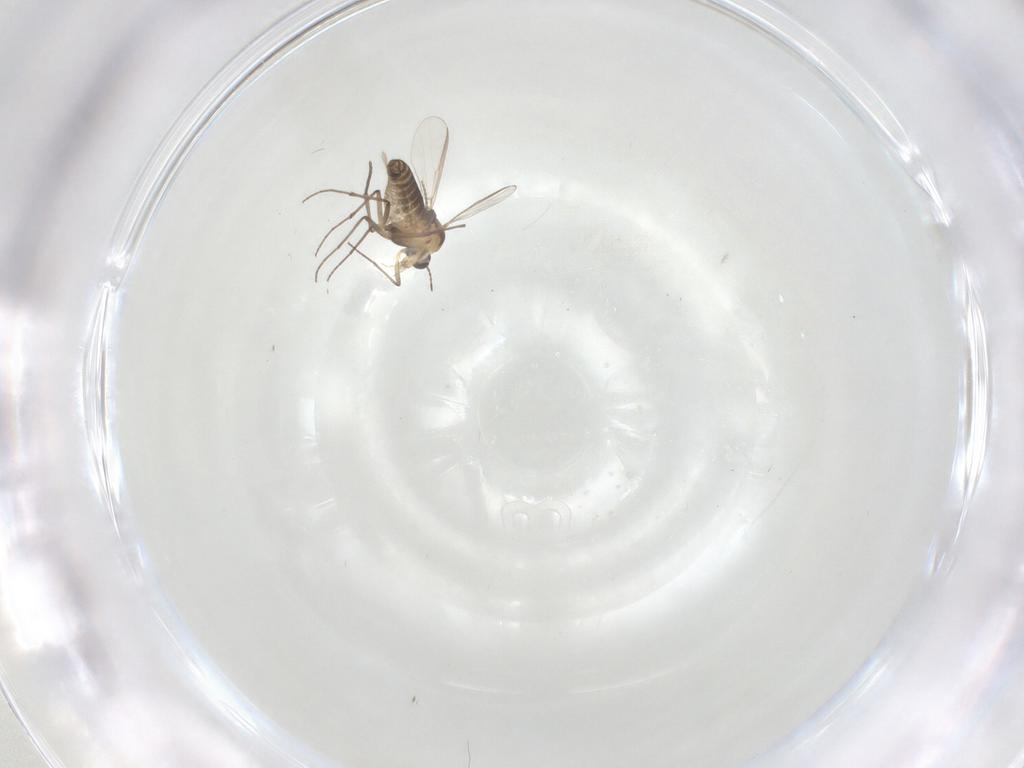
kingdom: Animalia
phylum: Arthropoda
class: Insecta
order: Diptera
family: Chironomidae
